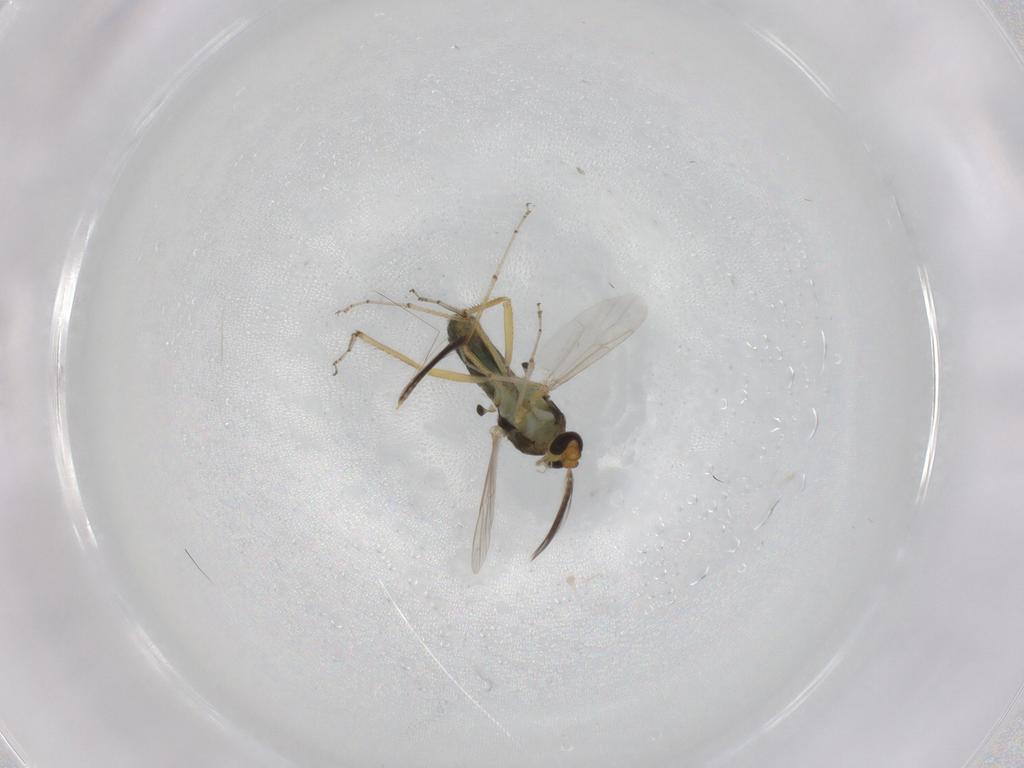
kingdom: Animalia
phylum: Arthropoda
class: Insecta
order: Diptera
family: Ceratopogonidae
